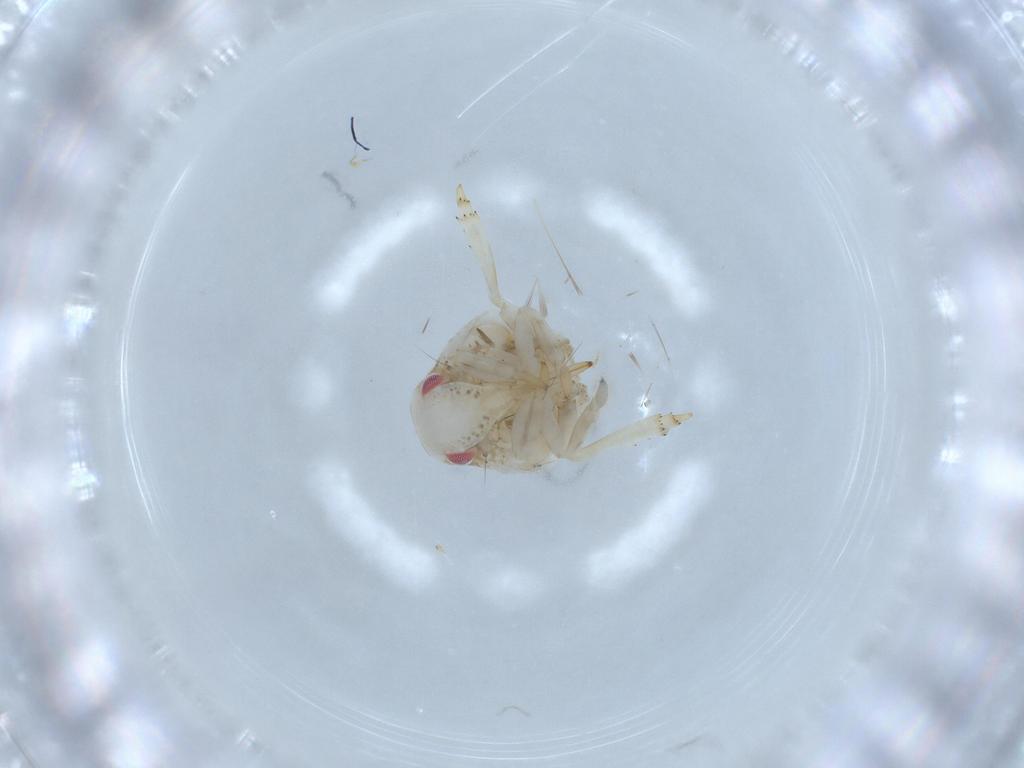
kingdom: Animalia
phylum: Arthropoda
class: Insecta
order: Hemiptera
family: Acanaloniidae
